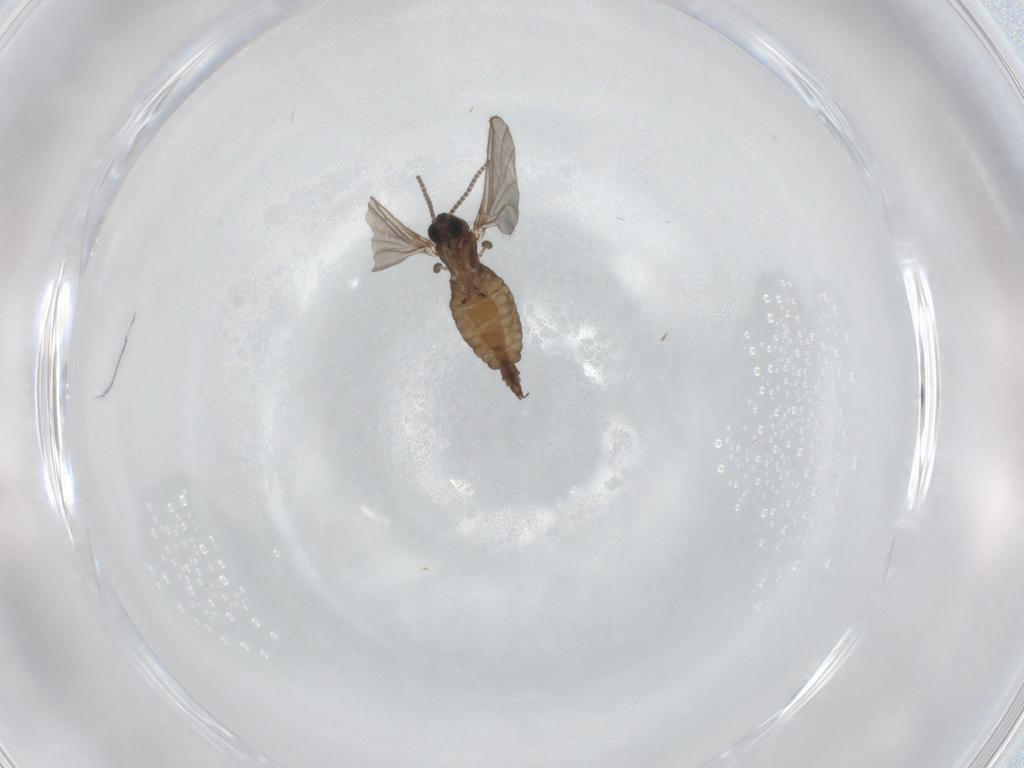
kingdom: Animalia
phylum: Arthropoda
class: Insecta
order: Diptera
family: Sciaridae
